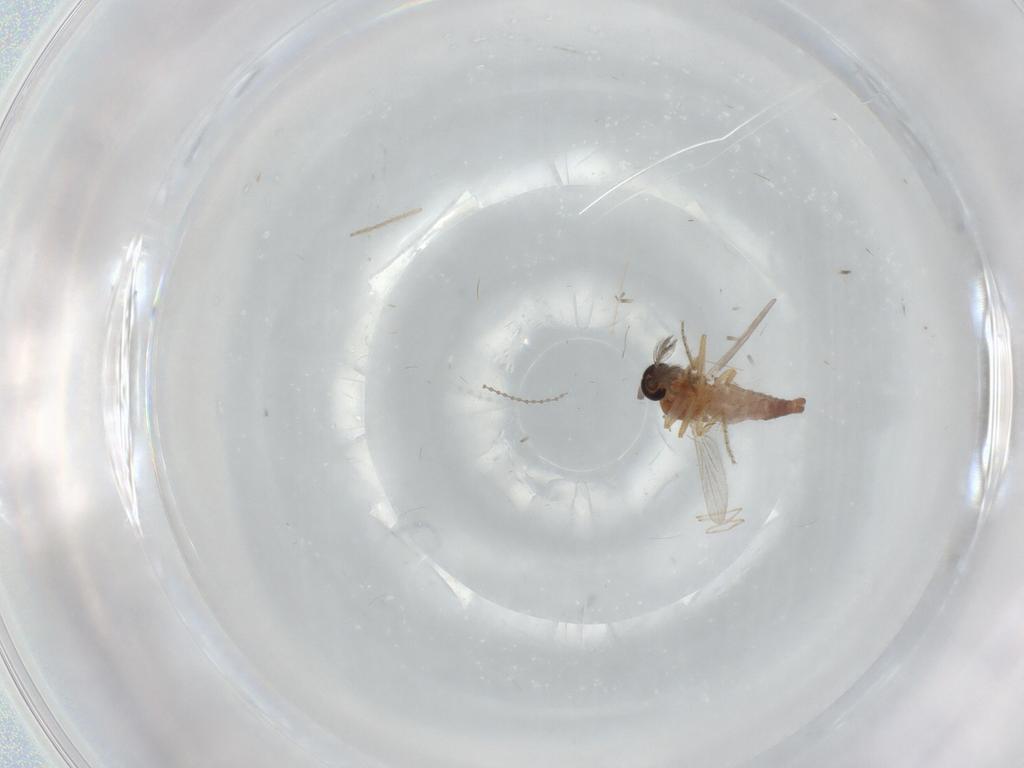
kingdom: Animalia
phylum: Arthropoda
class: Insecta
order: Diptera
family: Ceratopogonidae
